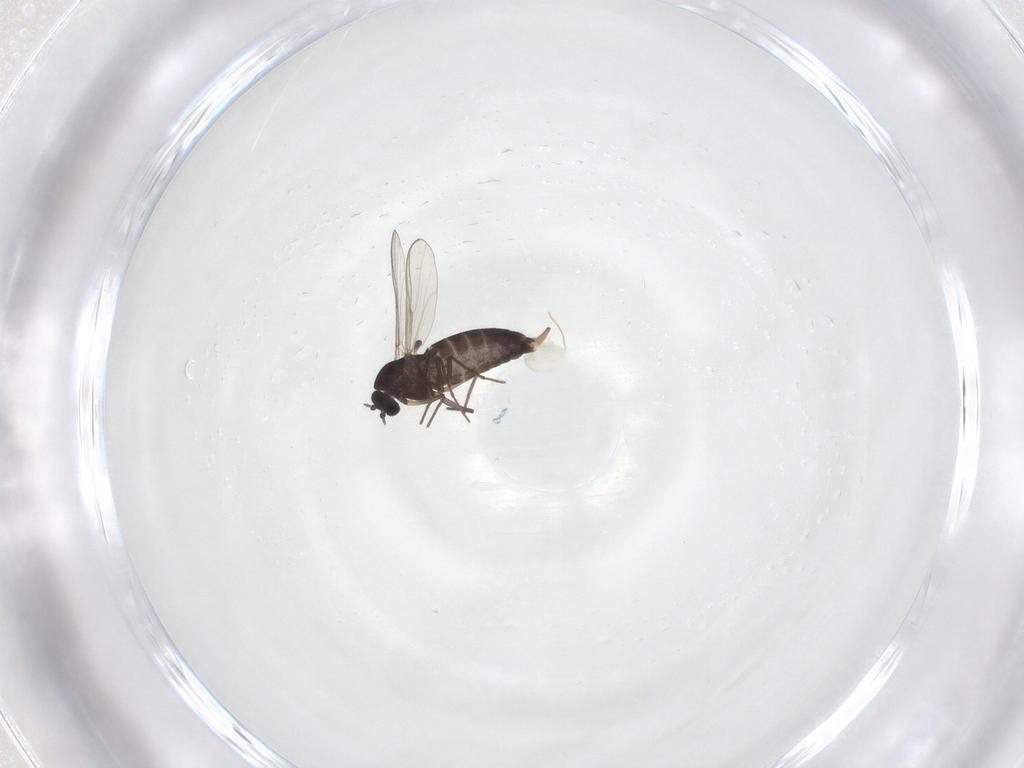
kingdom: Animalia
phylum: Arthropoda
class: Insecta
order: Diptera
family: Chironomidae
